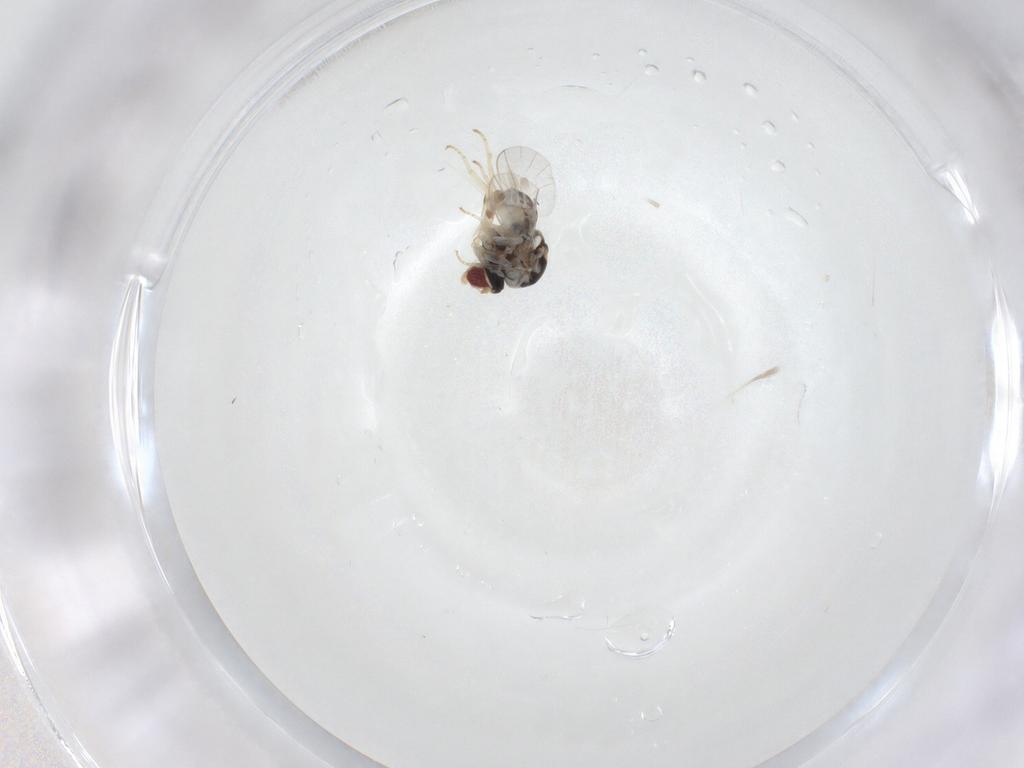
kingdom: Animalia
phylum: Arthropoda
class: Insecta
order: Diptera
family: Bombyliidae
